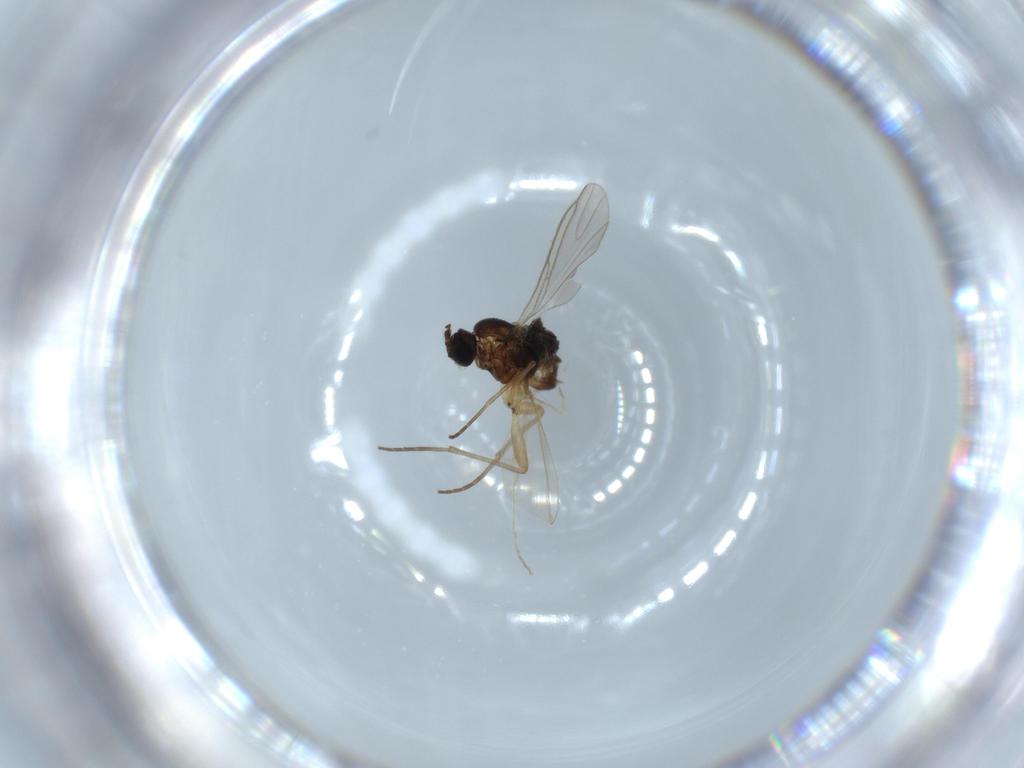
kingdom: Animalia
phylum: Arthropoda
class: Insecta
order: Diptera
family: Sciaridae
